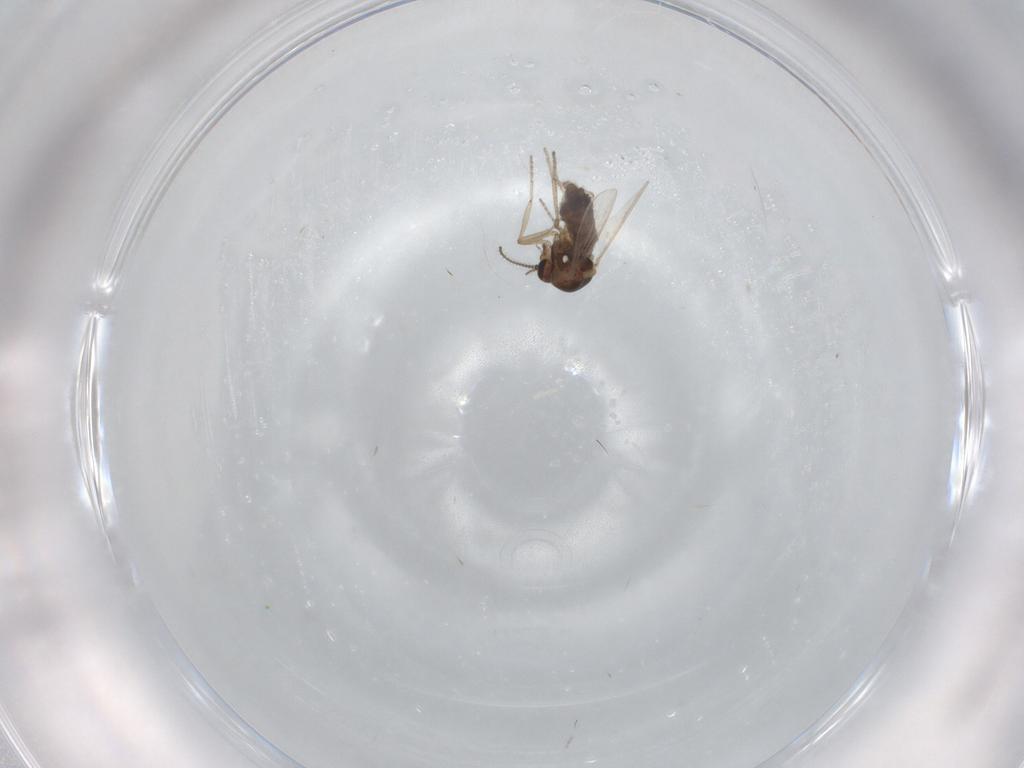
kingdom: Animalia
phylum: Arthropoda
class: Insecta
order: Diptera
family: Ceratopogonidae
